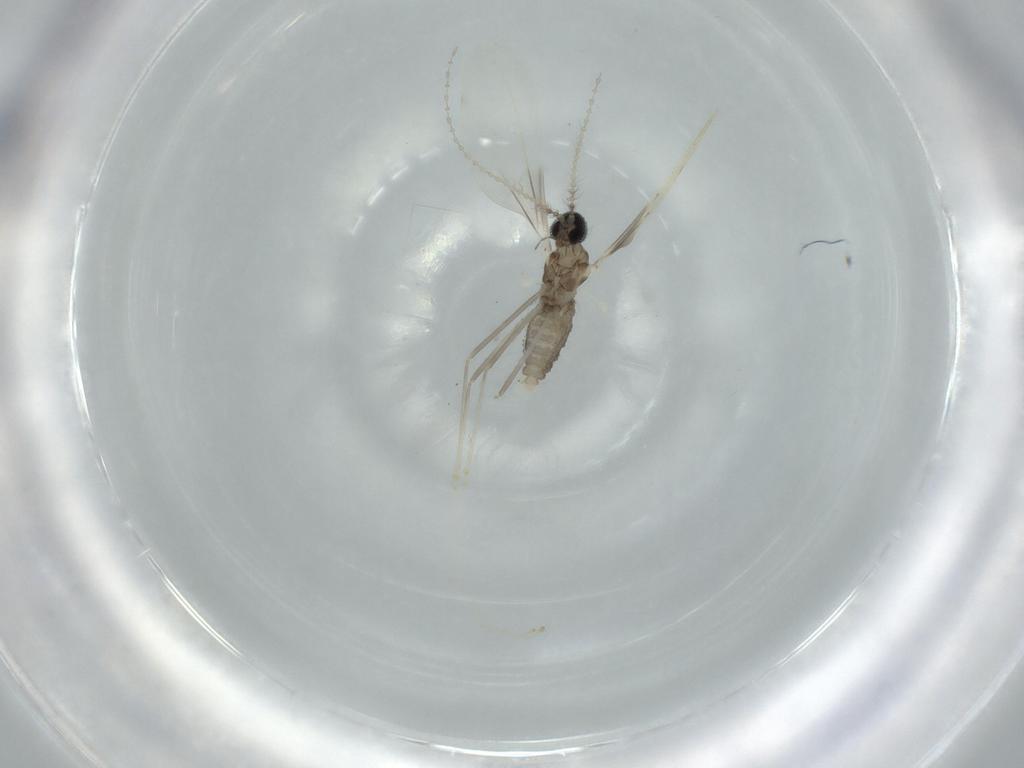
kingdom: Animalia
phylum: Arthropoda
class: Insecta
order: Diptera
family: Cecidomyiidae
